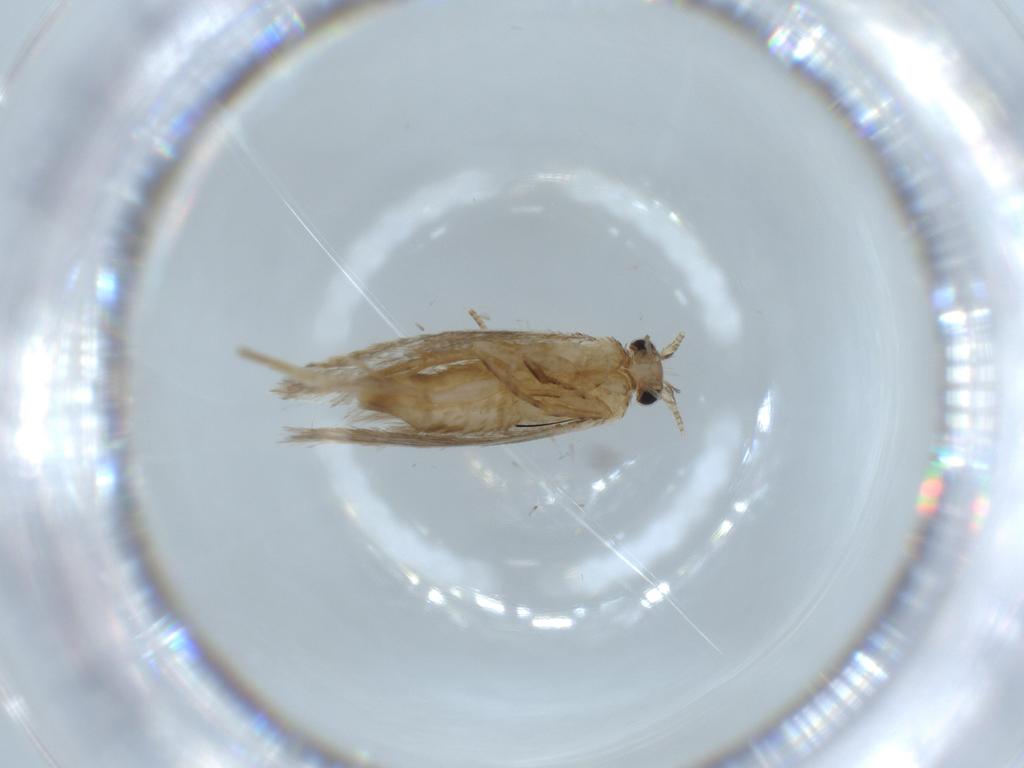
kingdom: Animalia
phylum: Arthropoda
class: Insecta
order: Lepidoptera
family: Tineidae
